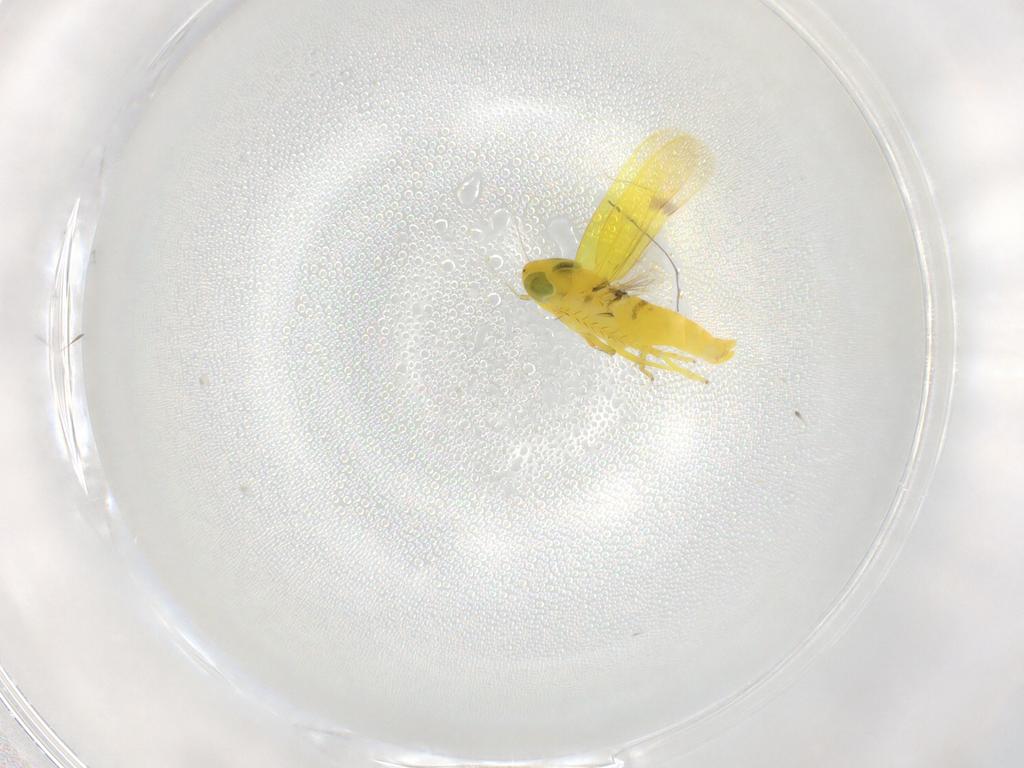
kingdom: Animalia
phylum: Arthropoda
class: Insecta
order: Hemiptera
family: Cicadellidae
